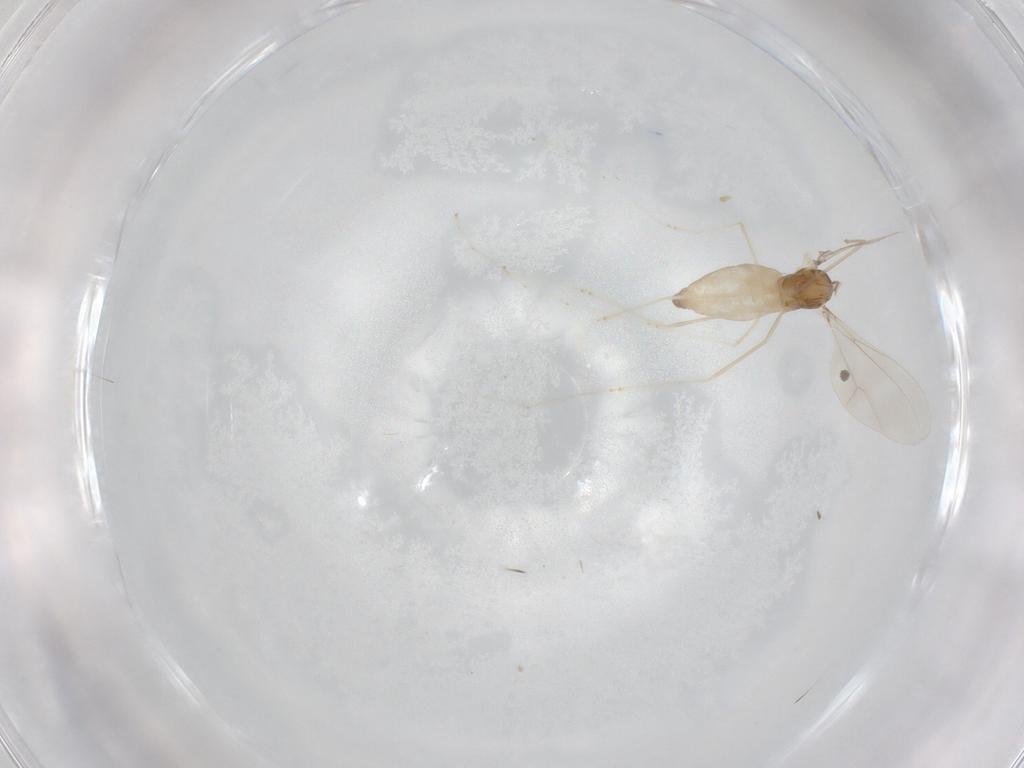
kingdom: Animalia
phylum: Arthropoda
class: Insecta
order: Diptera
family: Cecidomyiidae
